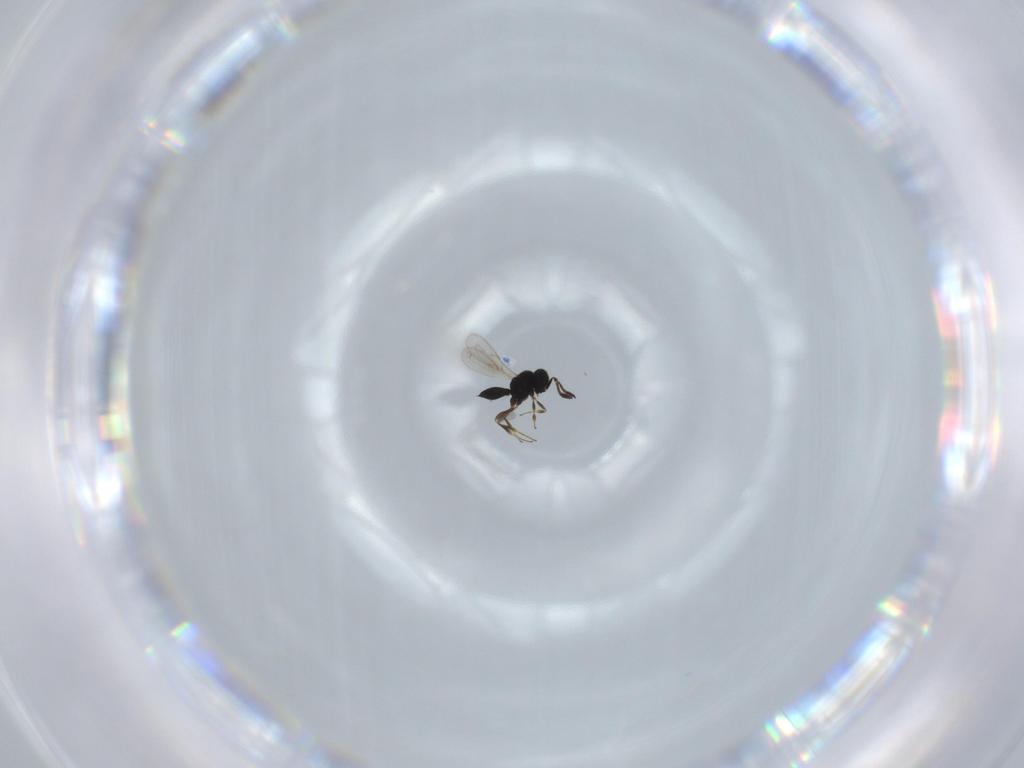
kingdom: Animalia
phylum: Arthropoda
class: Insecta
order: Hymenoptera
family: Scelionidae
